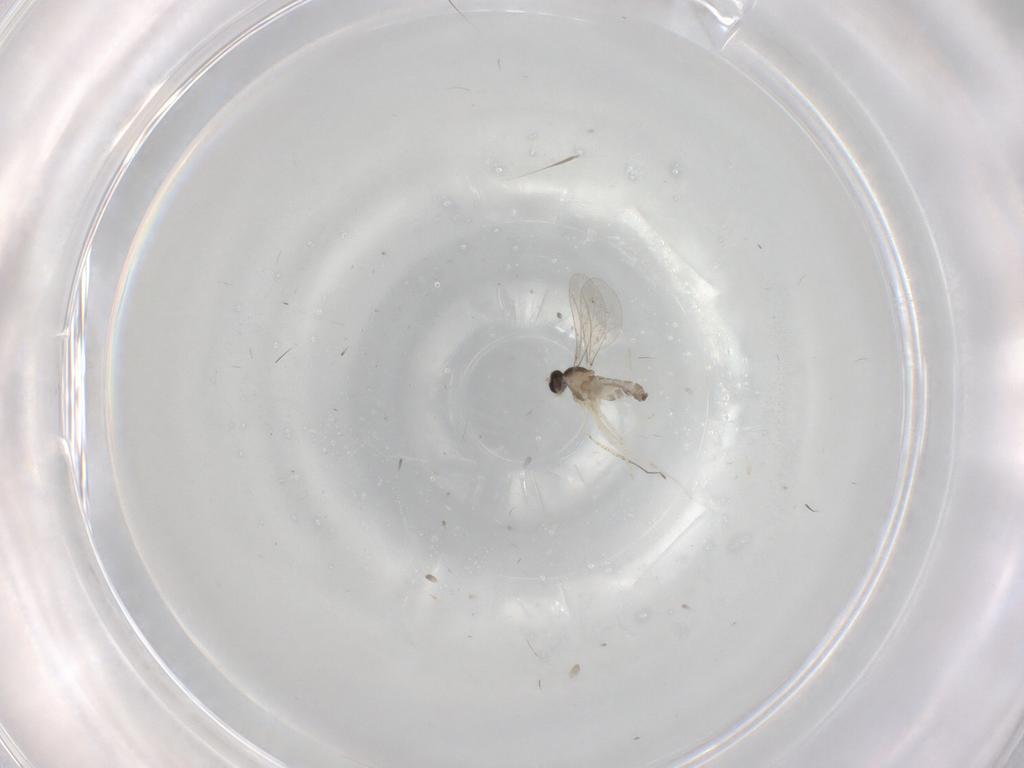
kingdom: Animalia
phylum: Arthropoda
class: Insecta
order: Diptera
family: Cecidomyiidae
